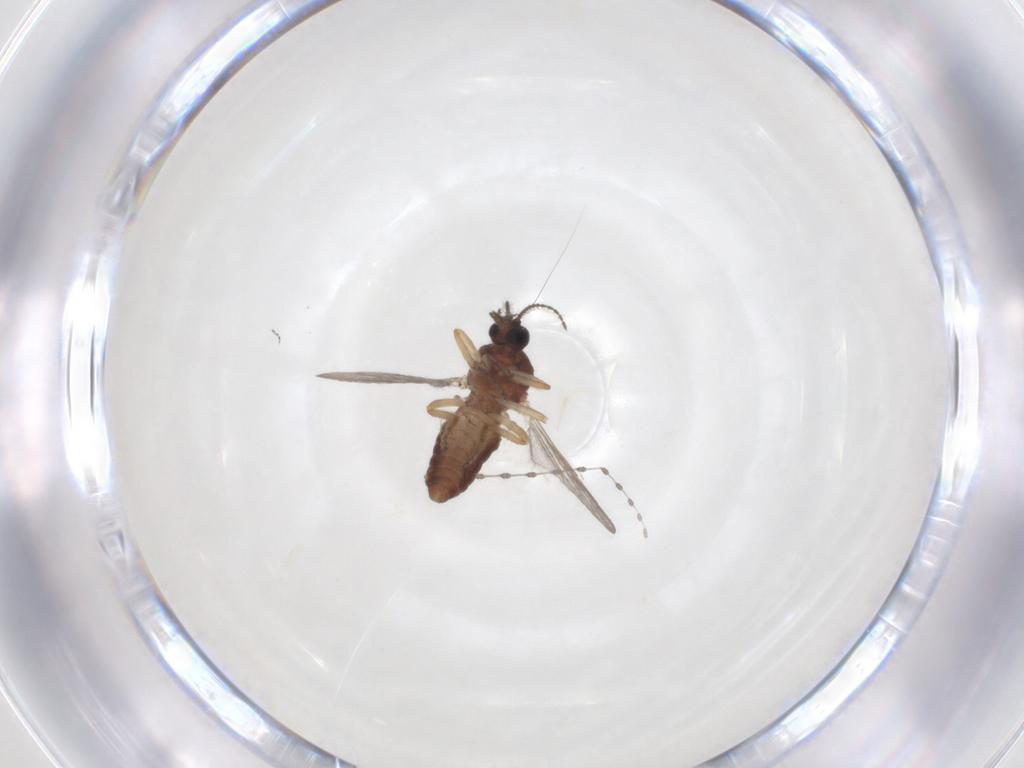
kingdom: Animalia
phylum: Arthropoda
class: Insecta
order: Diptera
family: Ceratopogonidae
